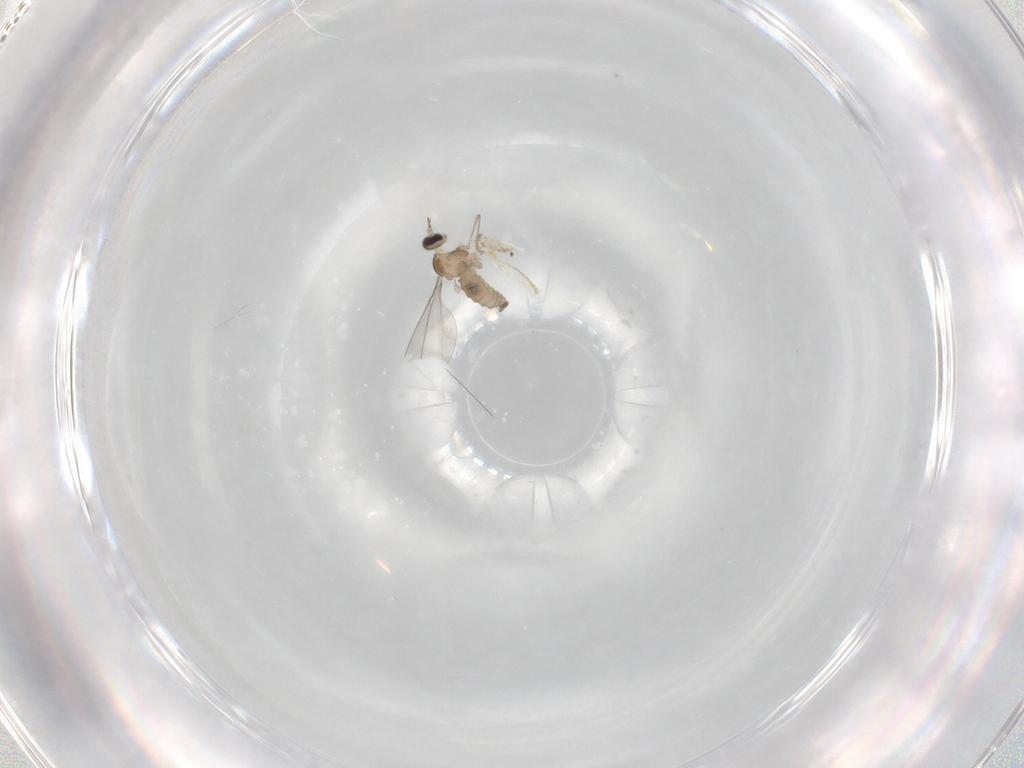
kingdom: Animalia
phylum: Arthropoda
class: Insecta
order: Diptera
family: Cecidomyiidae
